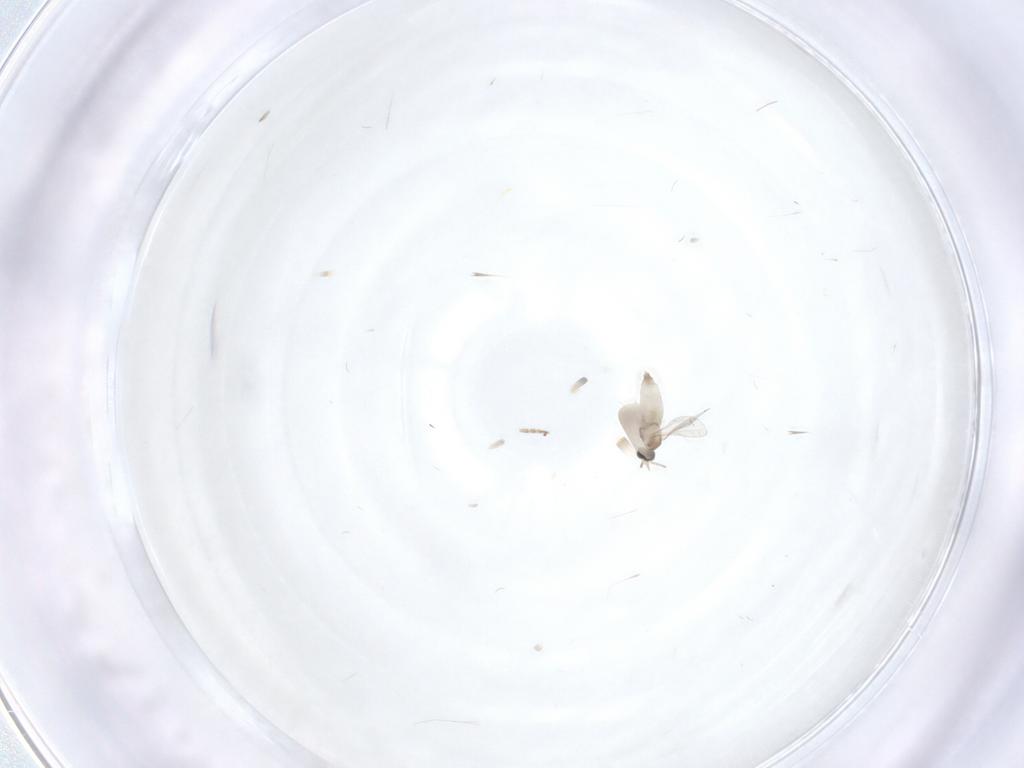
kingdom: Animalia
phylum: Arthropoda
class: Insecta
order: Diptera
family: Cecidomyiidae
